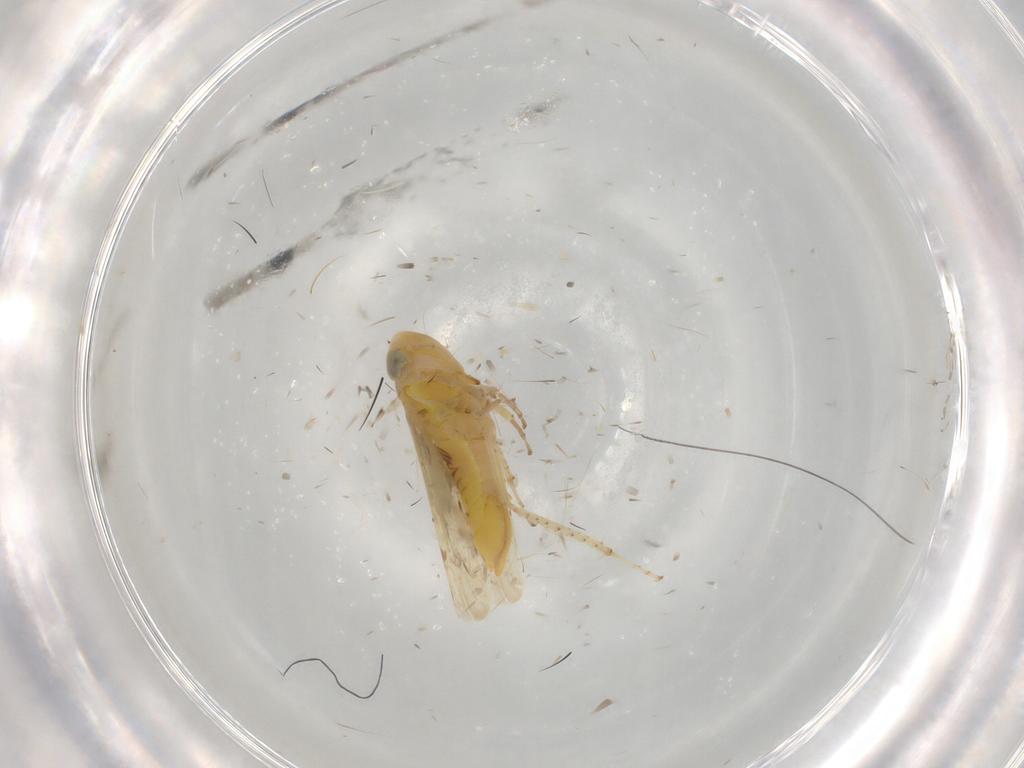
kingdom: Animalia
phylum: Arthropoda
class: Insecta
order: Hemiptera
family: Cicadellidae
